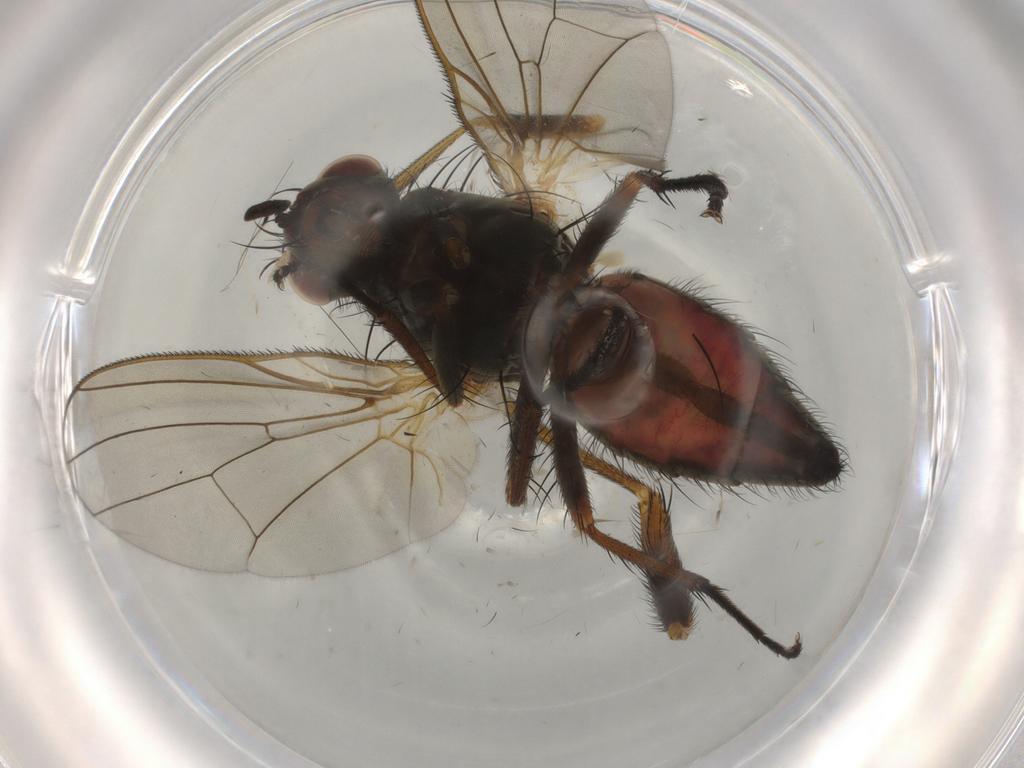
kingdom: Animalia
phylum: Arthropoda
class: Insecta
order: Diptera
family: Anthomyiidae
